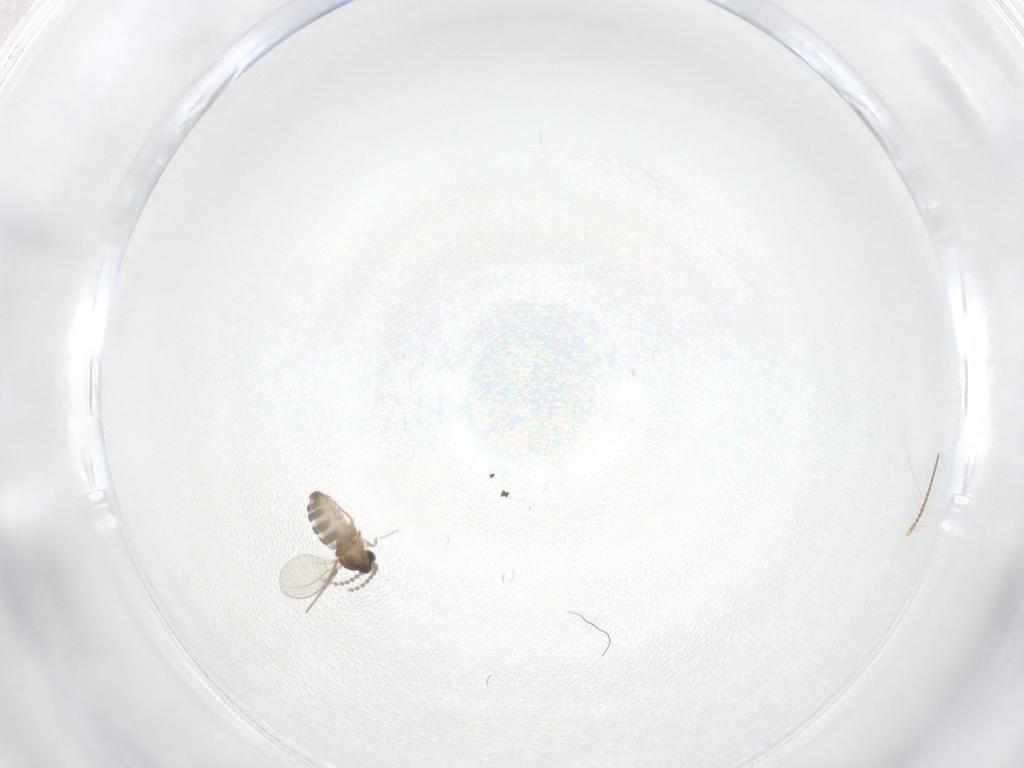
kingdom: Animalia
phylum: Arthropoda
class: Insecta
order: Diptera
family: Chironomidae
